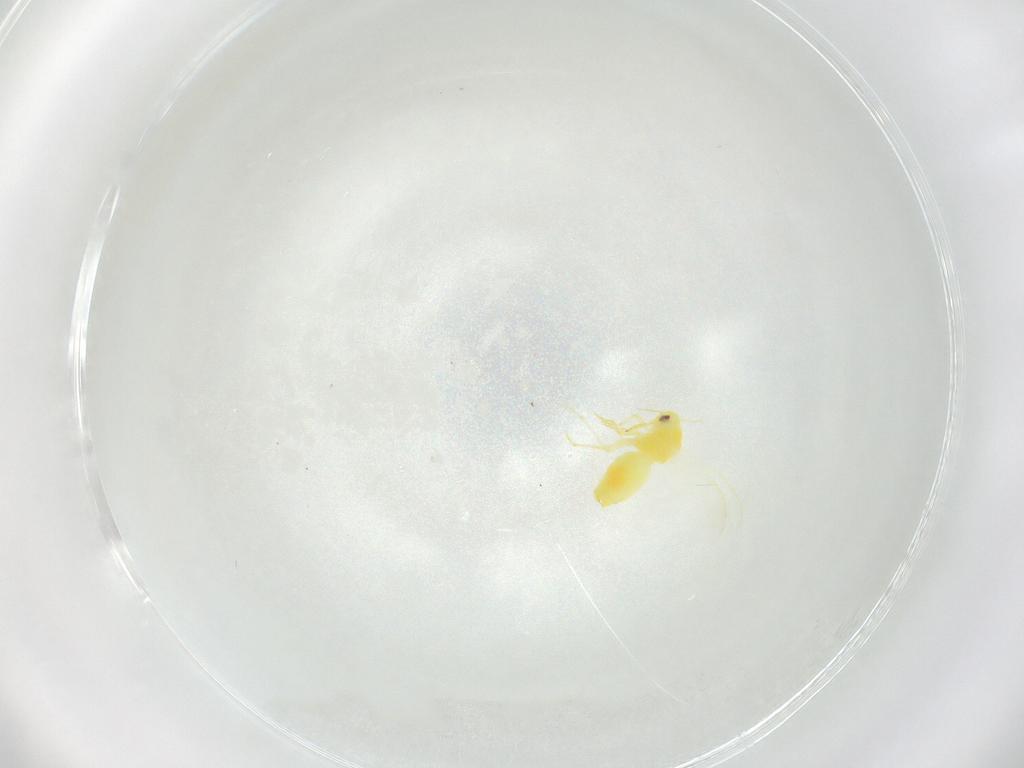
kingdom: Animalia
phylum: Arthropoda
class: Insecta
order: Hemiptera
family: Aleyrodidae
